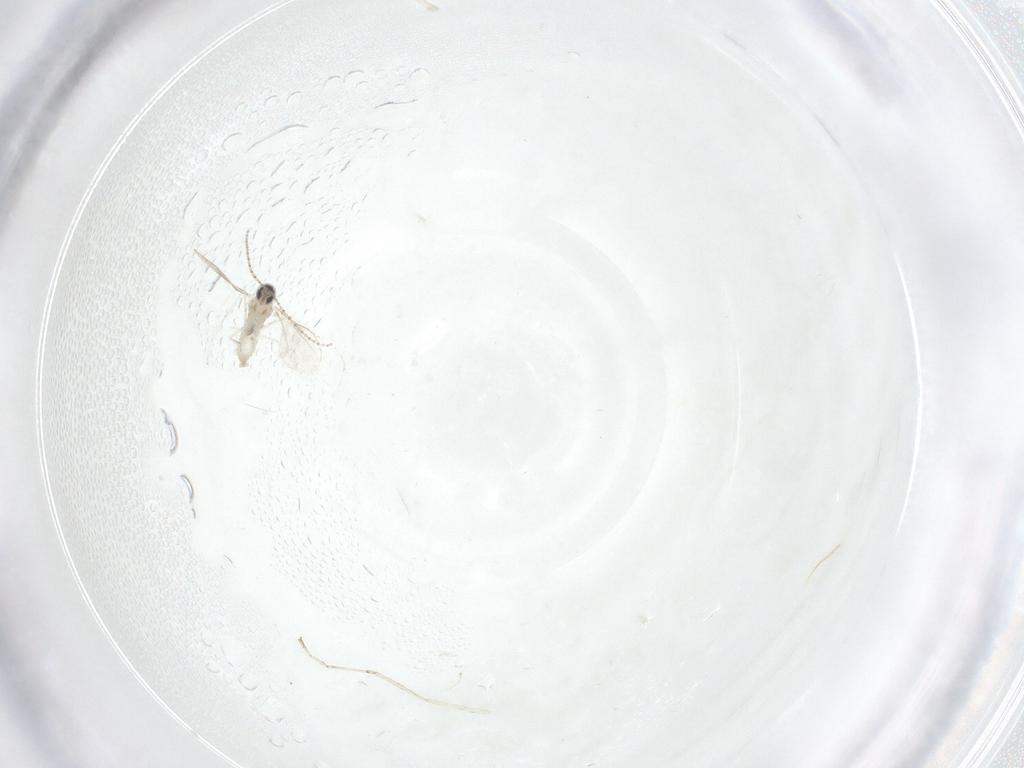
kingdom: Animalia
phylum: Arthropoda
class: Insecta
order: Diptera
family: Cecidomyiidae
